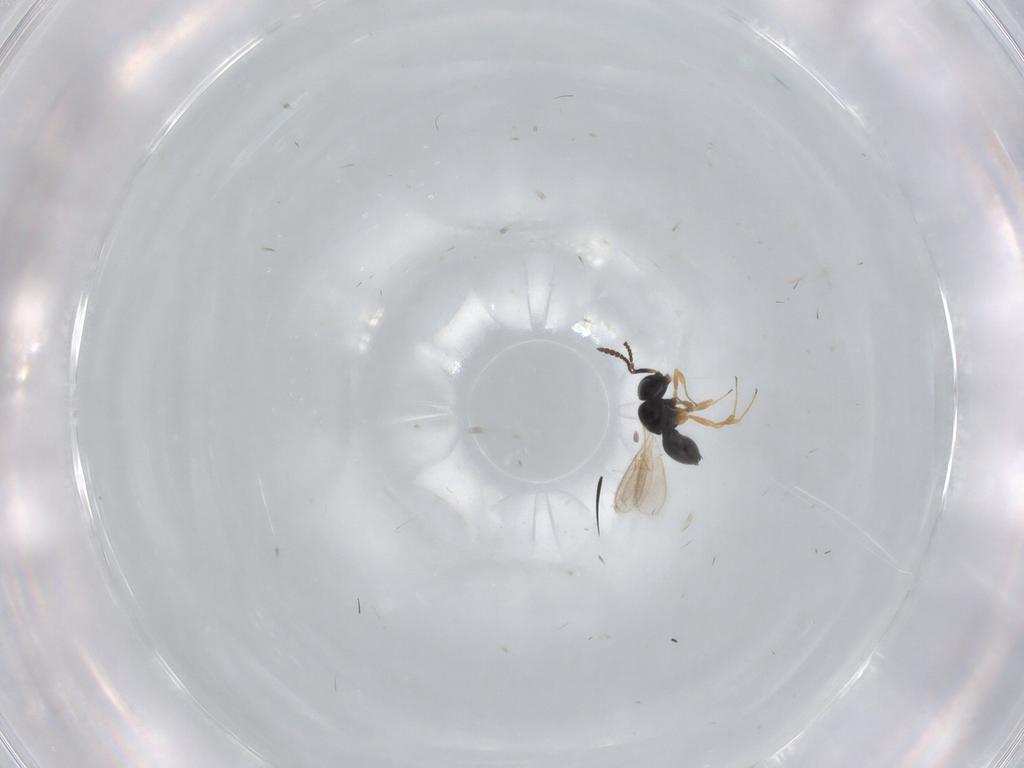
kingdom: Animalia
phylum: Arthropoda
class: Insecta
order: Hymenoptera
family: Scelionidae
